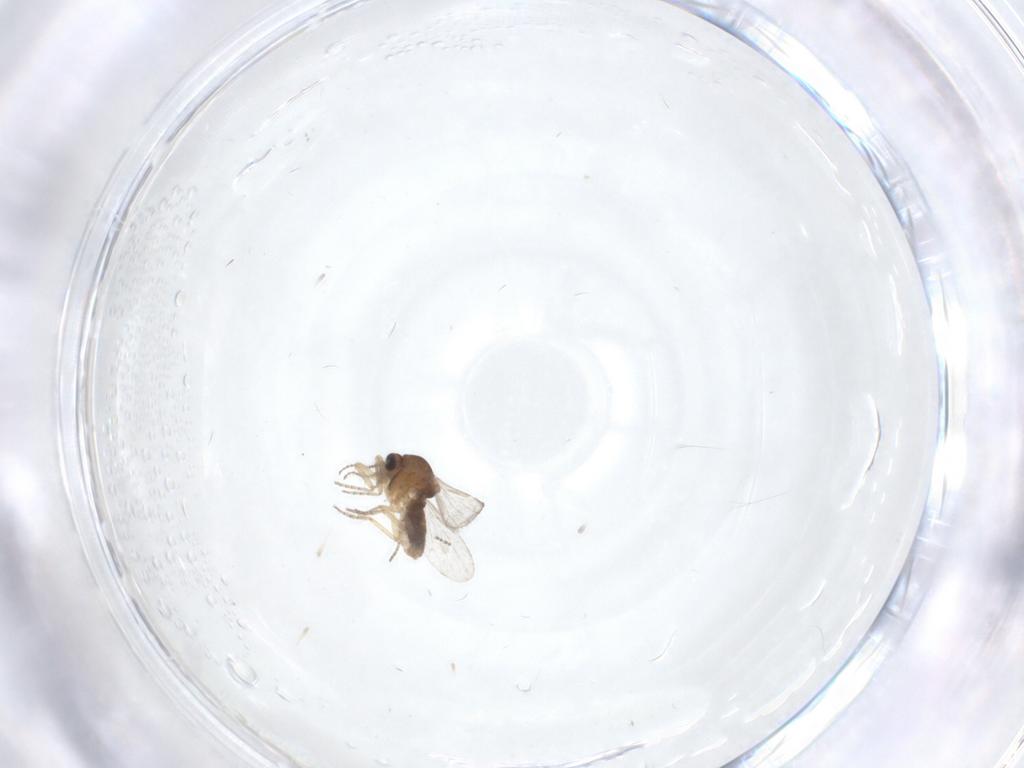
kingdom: Animalia
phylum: Arthropoda
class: Insecta
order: Diptera
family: Ceratopogonidae
